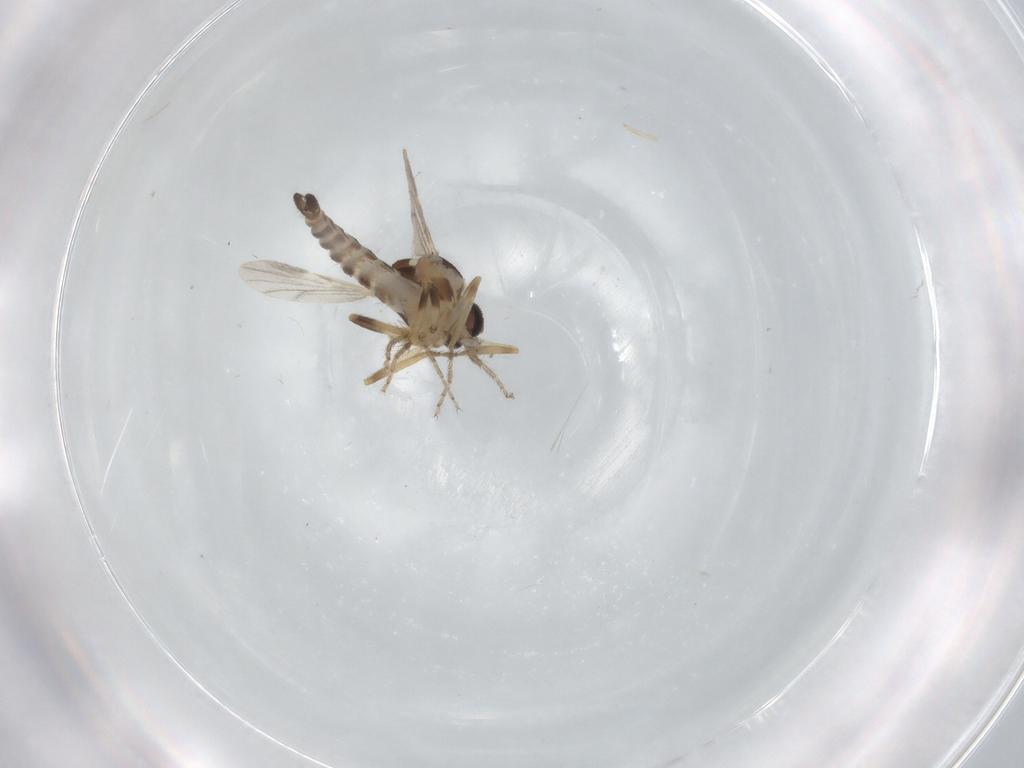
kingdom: Animalia
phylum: Arthropoda
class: Insecta
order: Diptera
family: Ceratopogonidae
